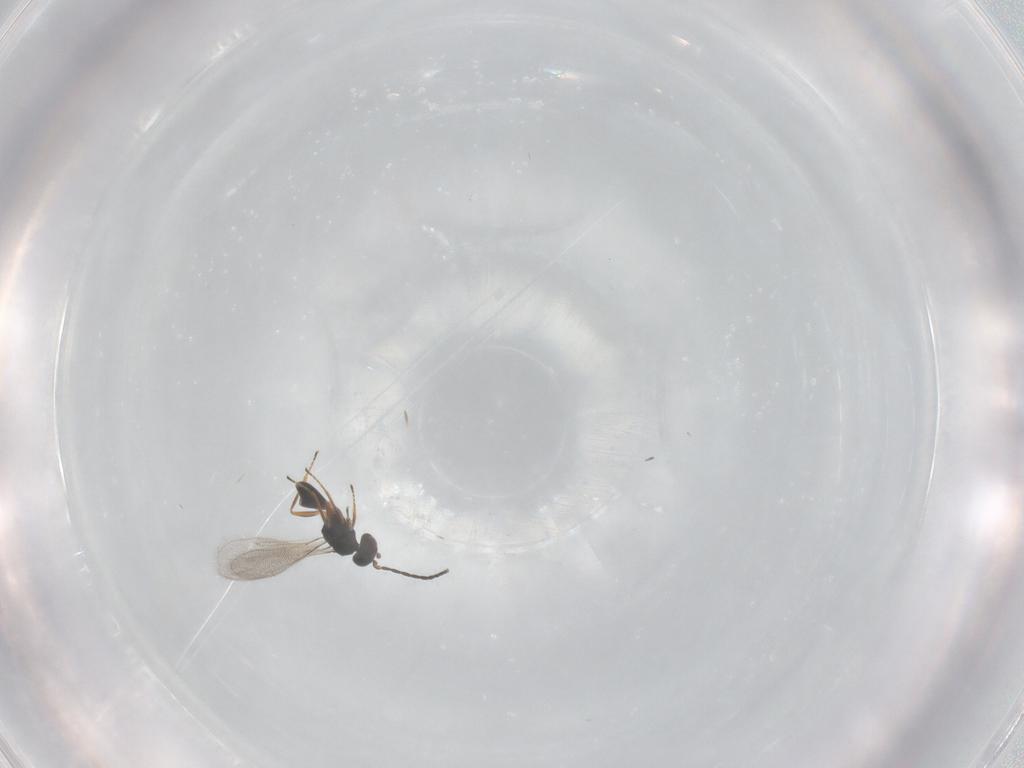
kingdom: Animalia
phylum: Arthropoda
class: Insecta
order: Hymenoptera
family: Mymaridae
